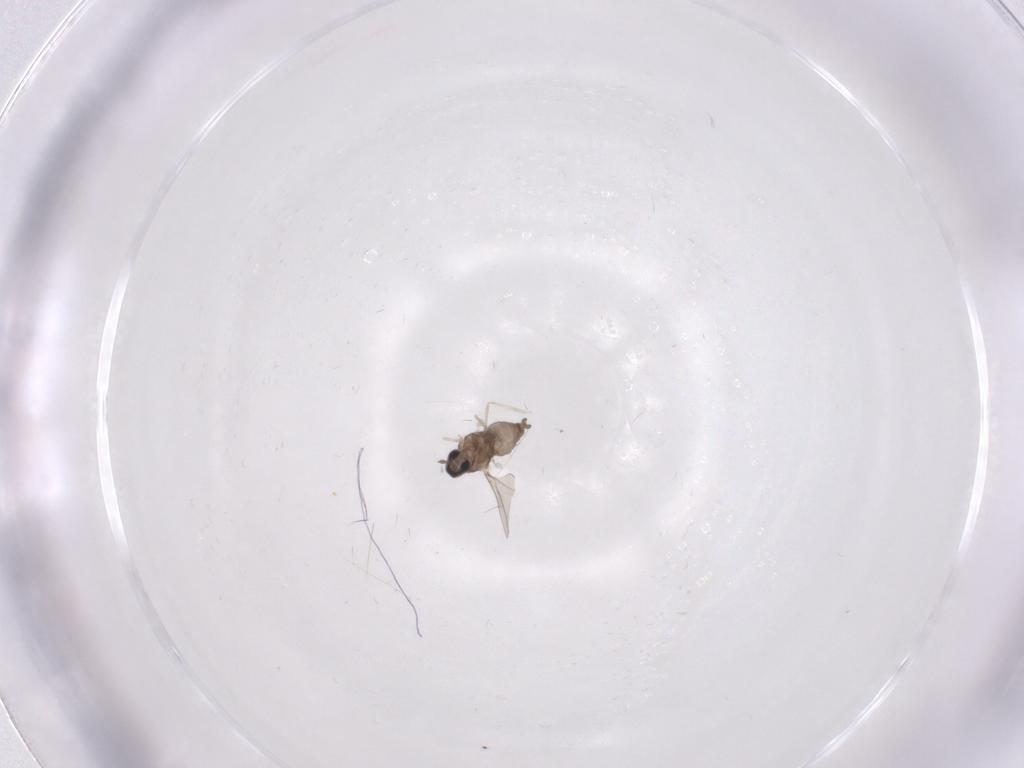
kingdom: Animalia
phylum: Arthropoda
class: Insecta
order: Diptera
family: Cecidomyiidae
